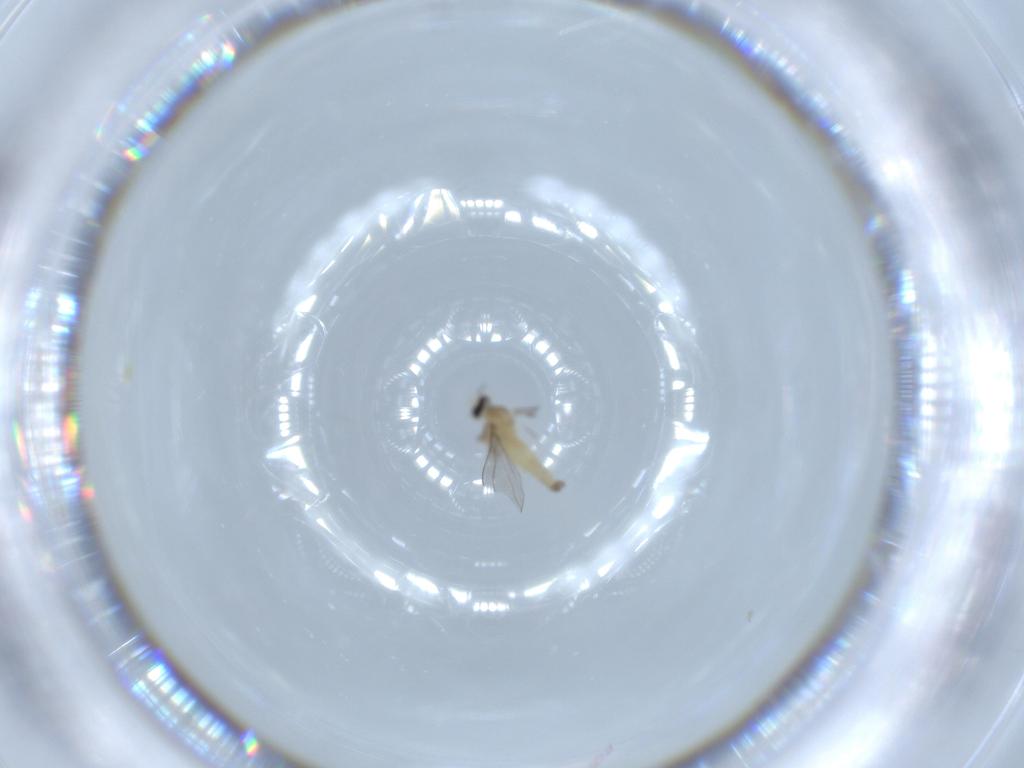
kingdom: Animalia
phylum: Arthropoda
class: Insecta
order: Diptera
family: Cecidomyiidae
